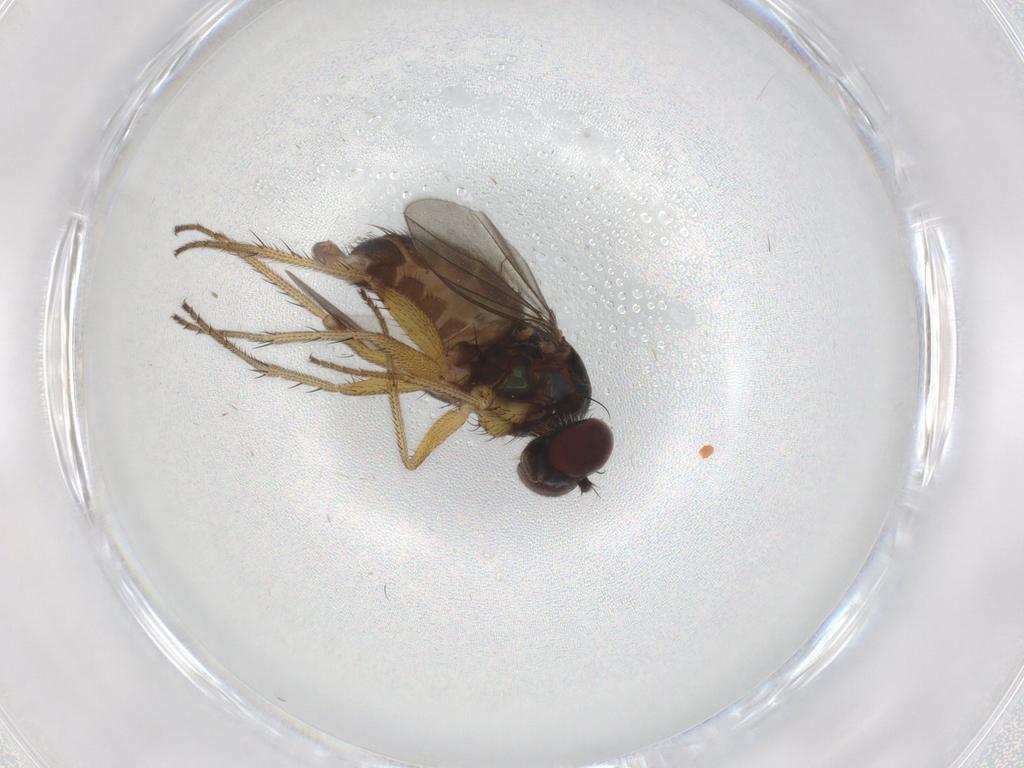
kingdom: Animalia
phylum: Arthropoda
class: Insecta
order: Diptera
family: Dolichopodidae
